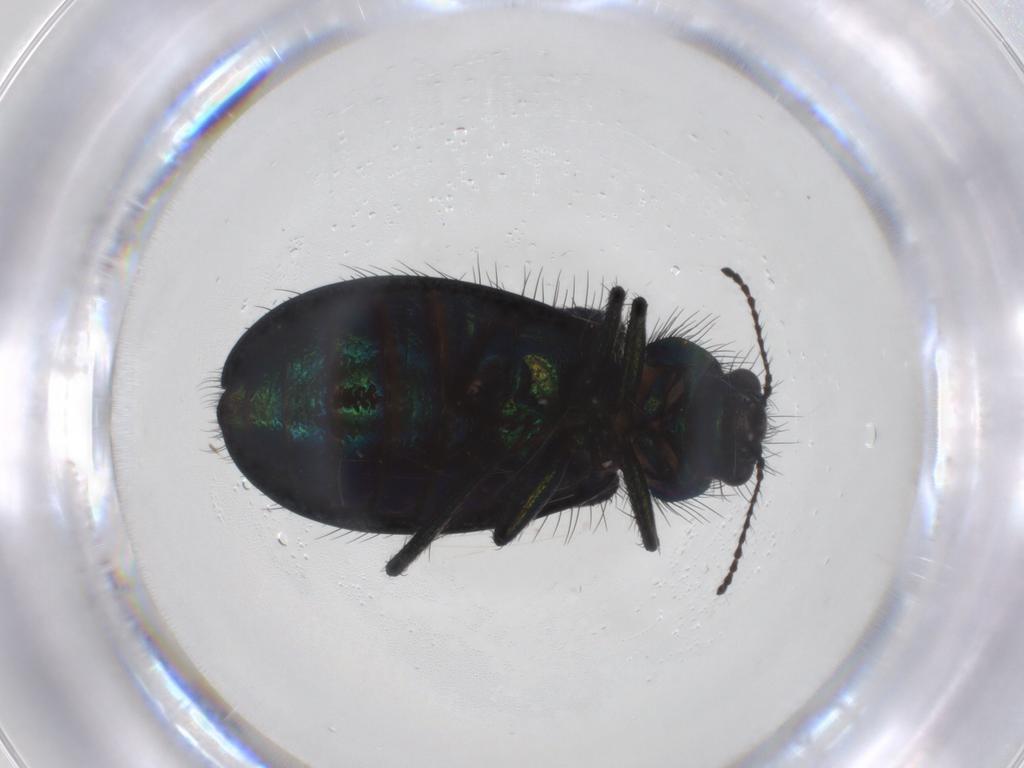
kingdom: Animalia
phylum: Arthropoda
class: Insecta
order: Coleoptera
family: Melyridae
